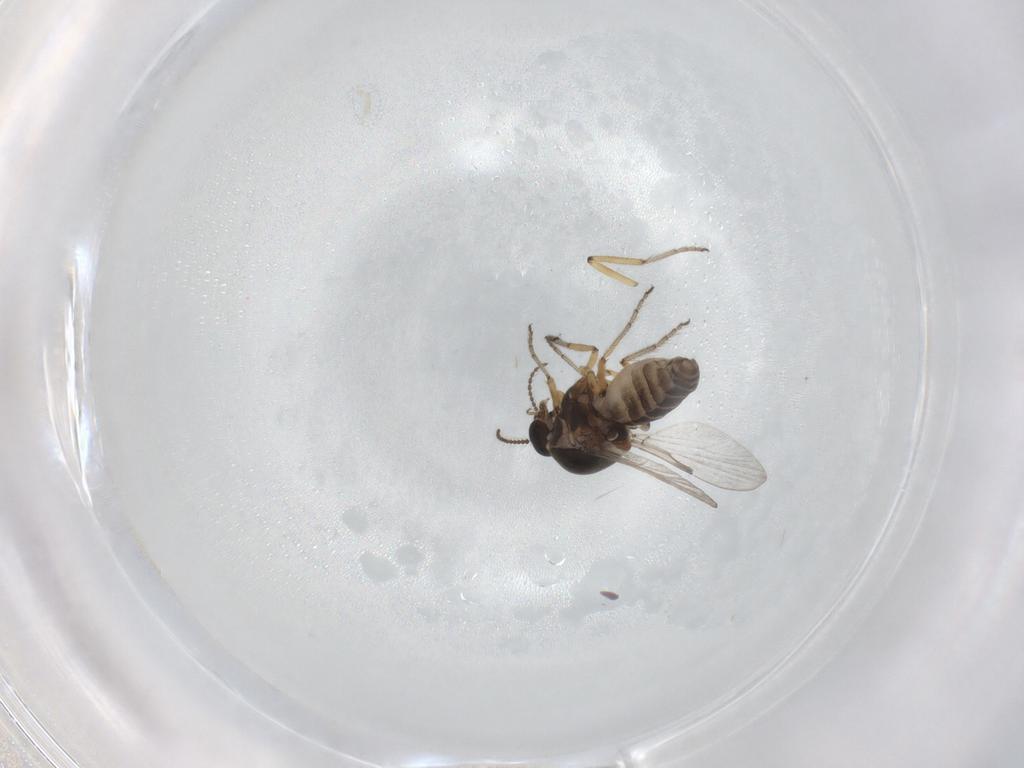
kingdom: Animalia
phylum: Arthropoda
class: Insecta
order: Diptera
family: Ceratopogonidae
